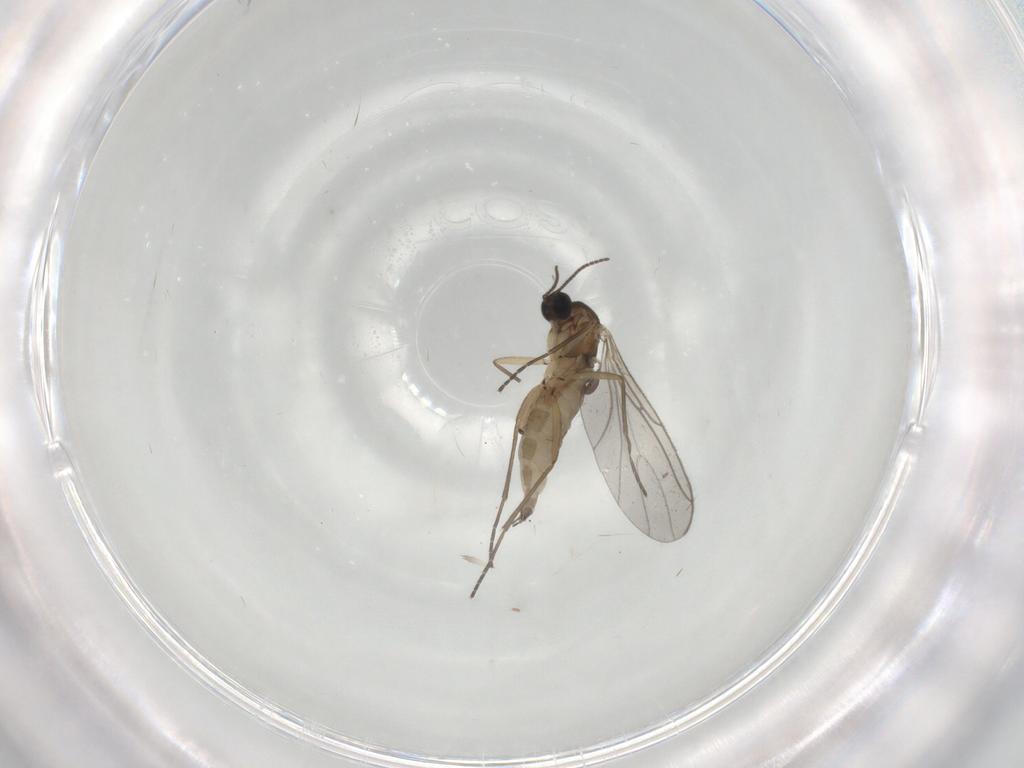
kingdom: Animalia
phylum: Arthropoda
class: Insecta
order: Diptera
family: Sciaridae
